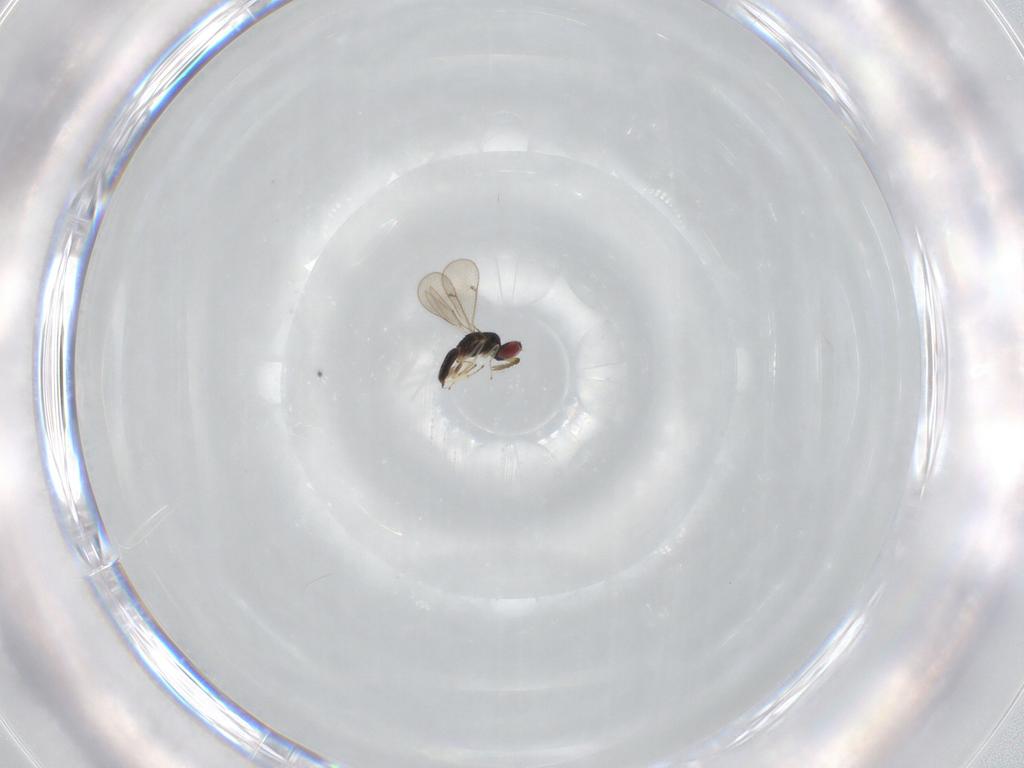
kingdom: Animalia
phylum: Arthropoda
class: Insecta
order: Hymenoptera
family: Eulophidae
